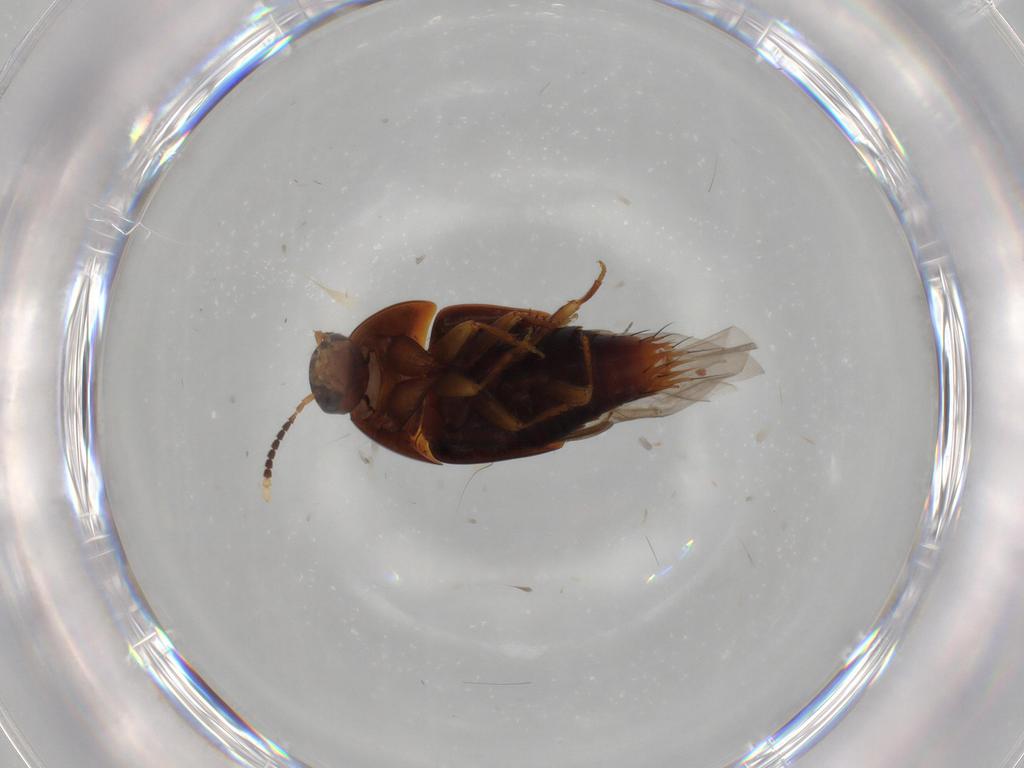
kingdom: Animalia
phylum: Arthropoda
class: Insecta
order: Coleoptera
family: Staphylinidae
